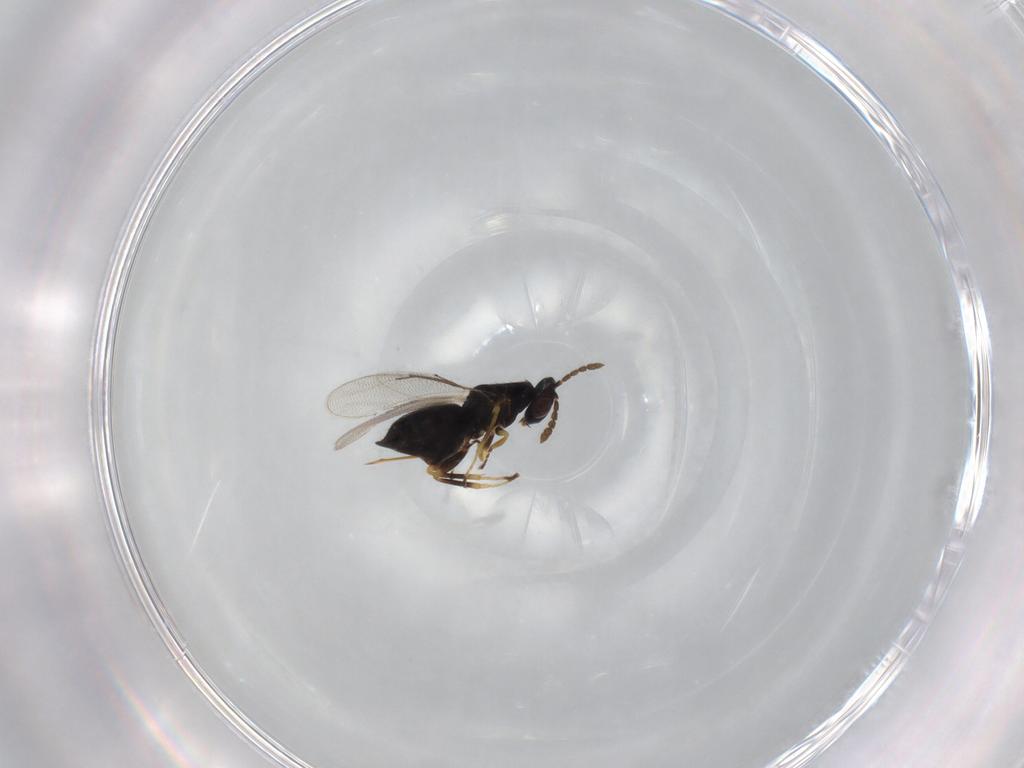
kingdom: Animalia
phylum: Arthropoda
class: Insecta
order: Hymenoptera
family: Eulophidae
